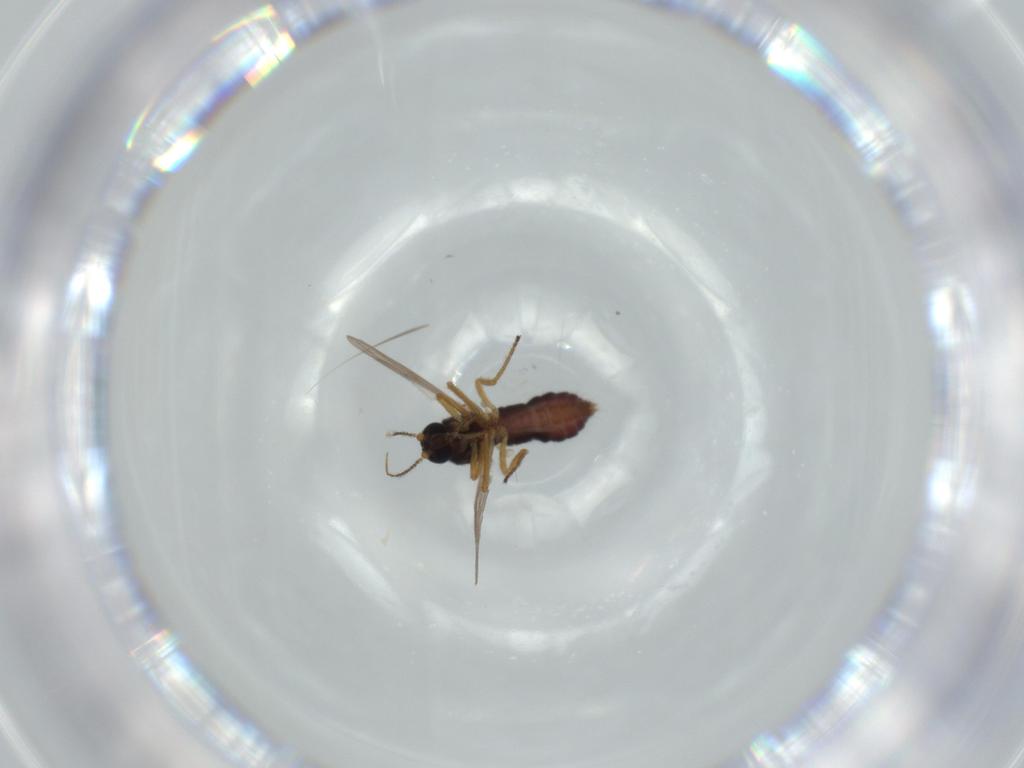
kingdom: Animalia
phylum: Arthropoda
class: Insecta
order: Diptera
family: Ceratopogonidae
